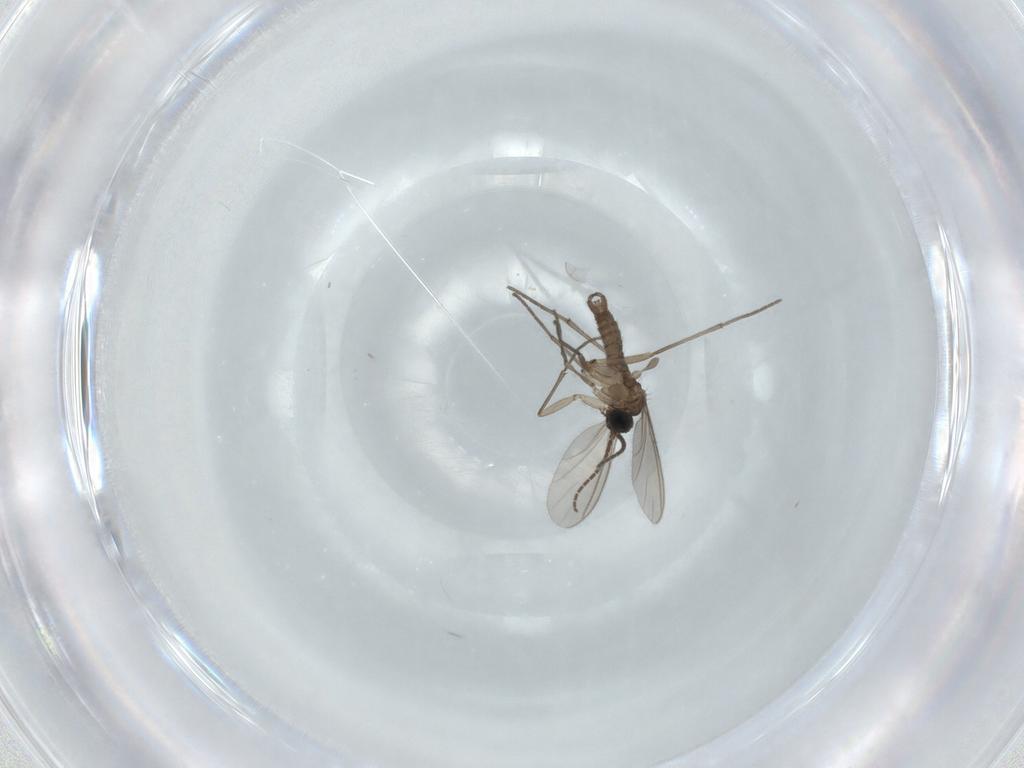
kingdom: Animalia
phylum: Arthropoda
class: Insecta
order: Diptera
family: Sciaridae
